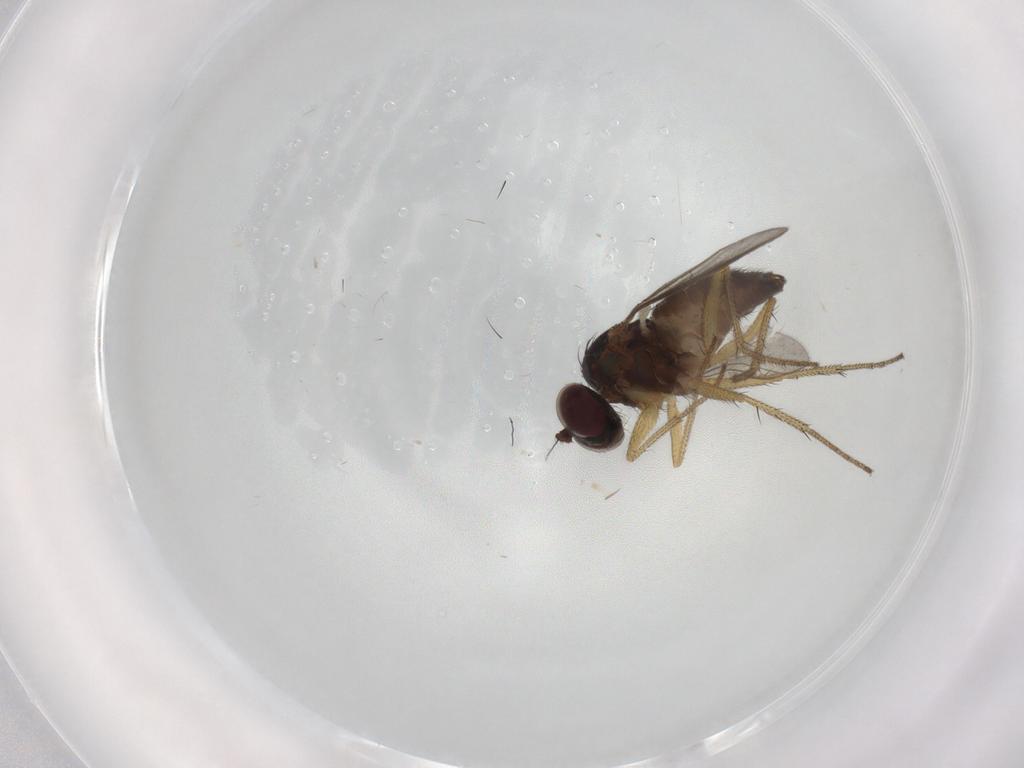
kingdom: Animalia
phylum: Arthropoda
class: Insecta
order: Diptera
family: Dolichopodidae
